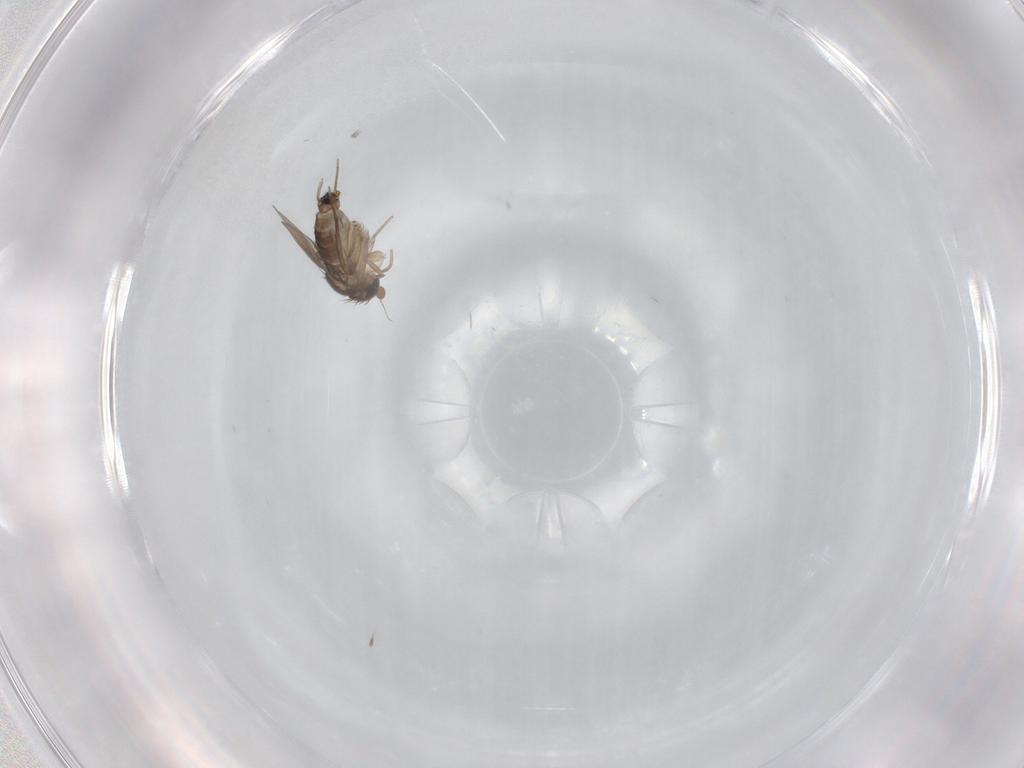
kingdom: Animalia
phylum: Arthropoda
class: Insecta
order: Diptera
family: Phoridae
